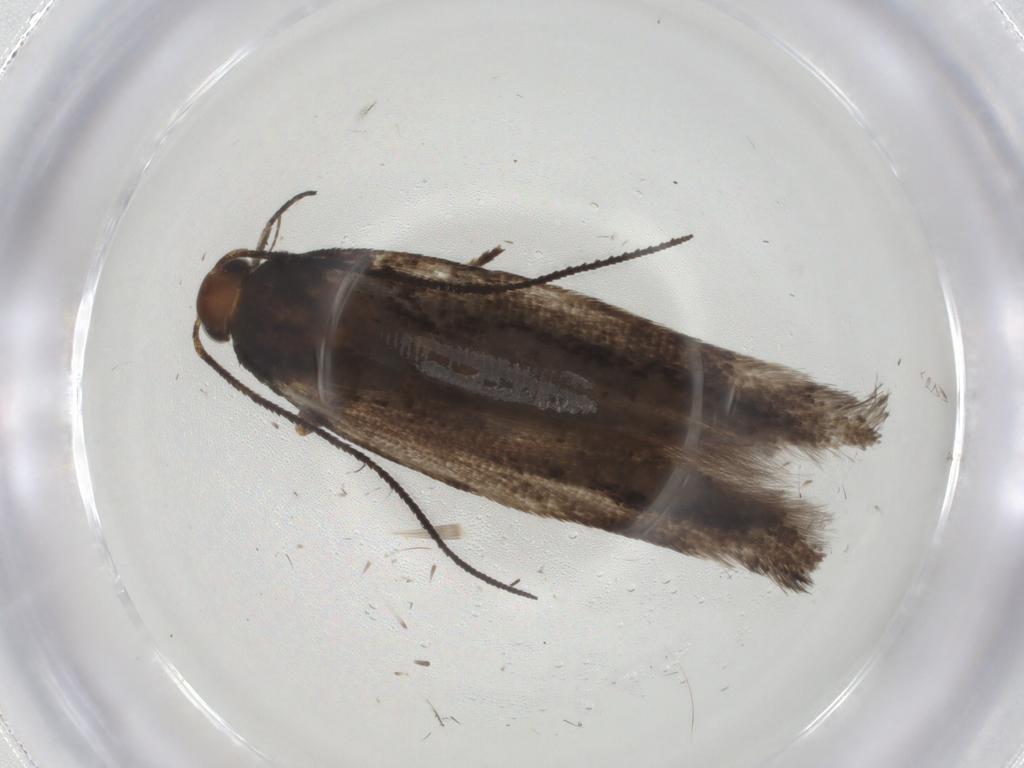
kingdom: Animalia
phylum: Arthropoda
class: Insecta
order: Lepidoptera
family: Gelechiidae
